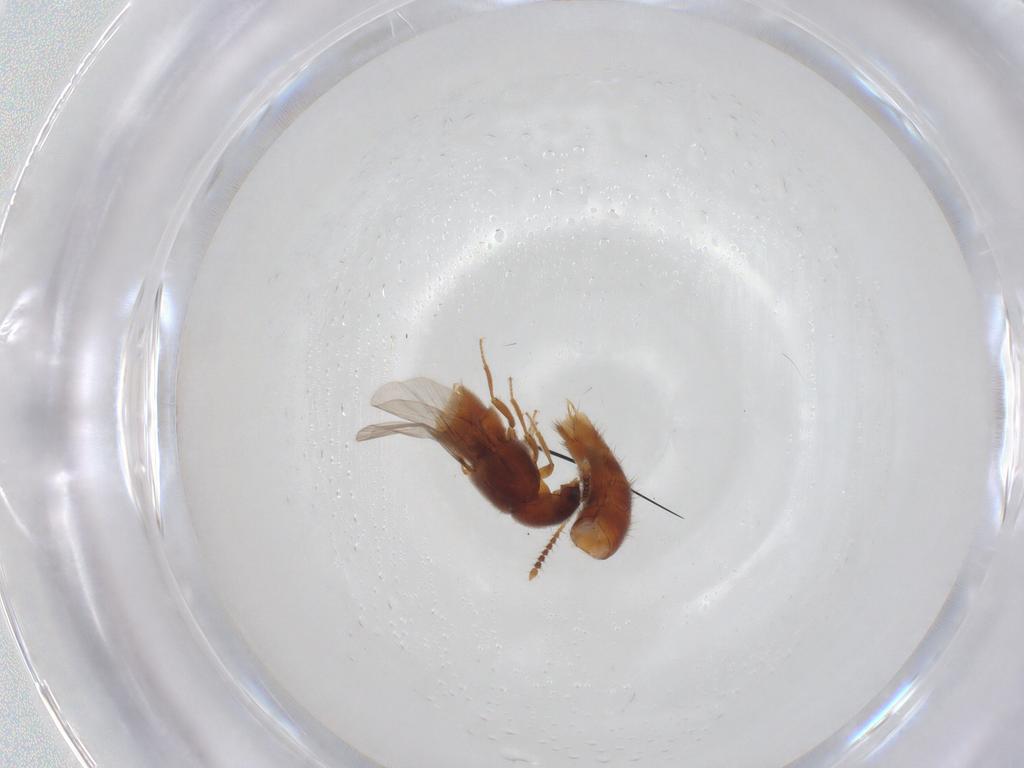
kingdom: Animalia
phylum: Arthropoda
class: Insecta
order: Coleoptera
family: Staphylinidae
